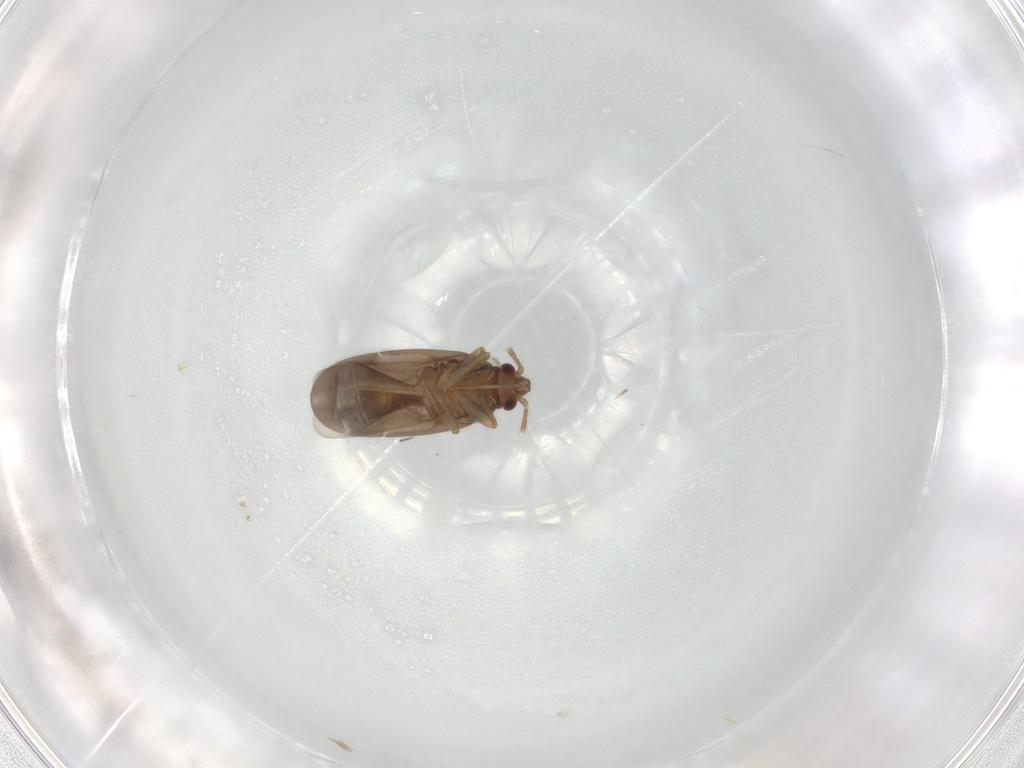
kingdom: Animalia
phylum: Arthropoda
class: Insecta
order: Hemiptera
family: Ceratocombidae
